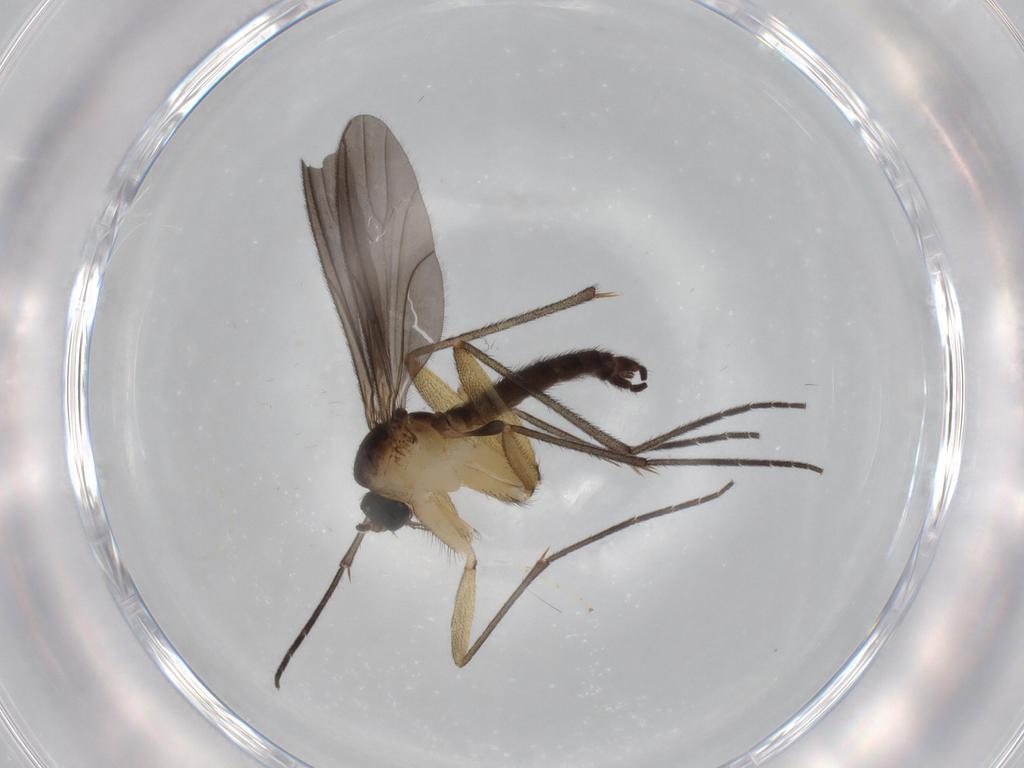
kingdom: Animalia
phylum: Arthropoda
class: Insecta
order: Diptera
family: Sciaridae
